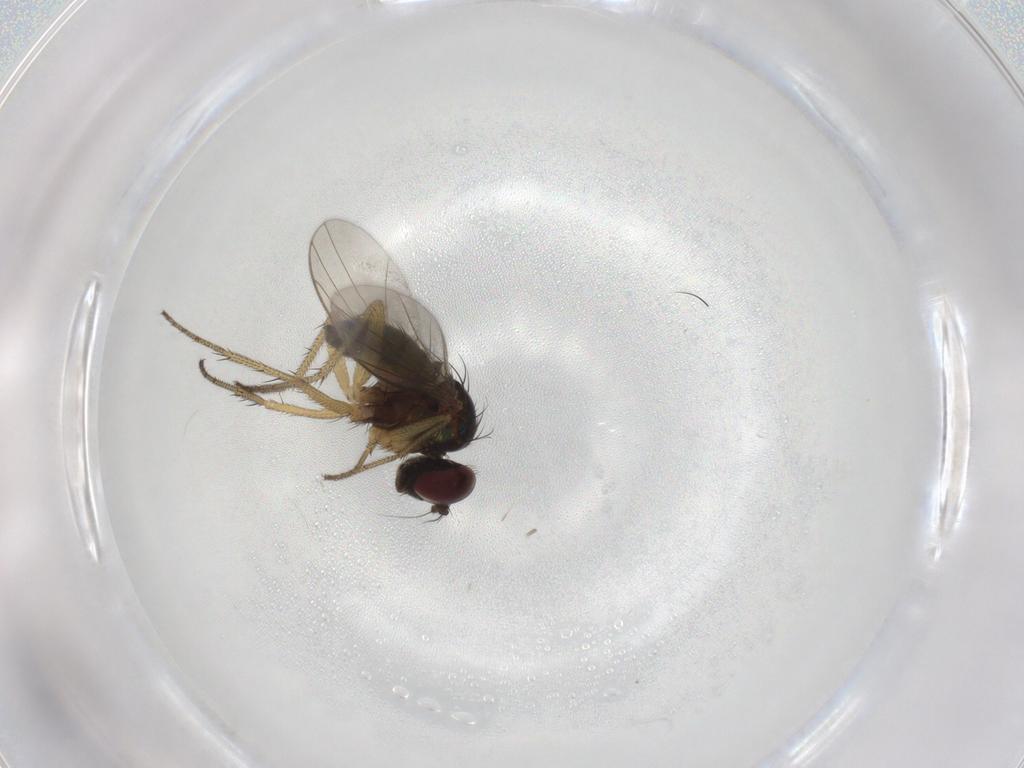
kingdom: Animalia
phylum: Arthropoda
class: Insecta
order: Diptera
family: Dolichopodidae
